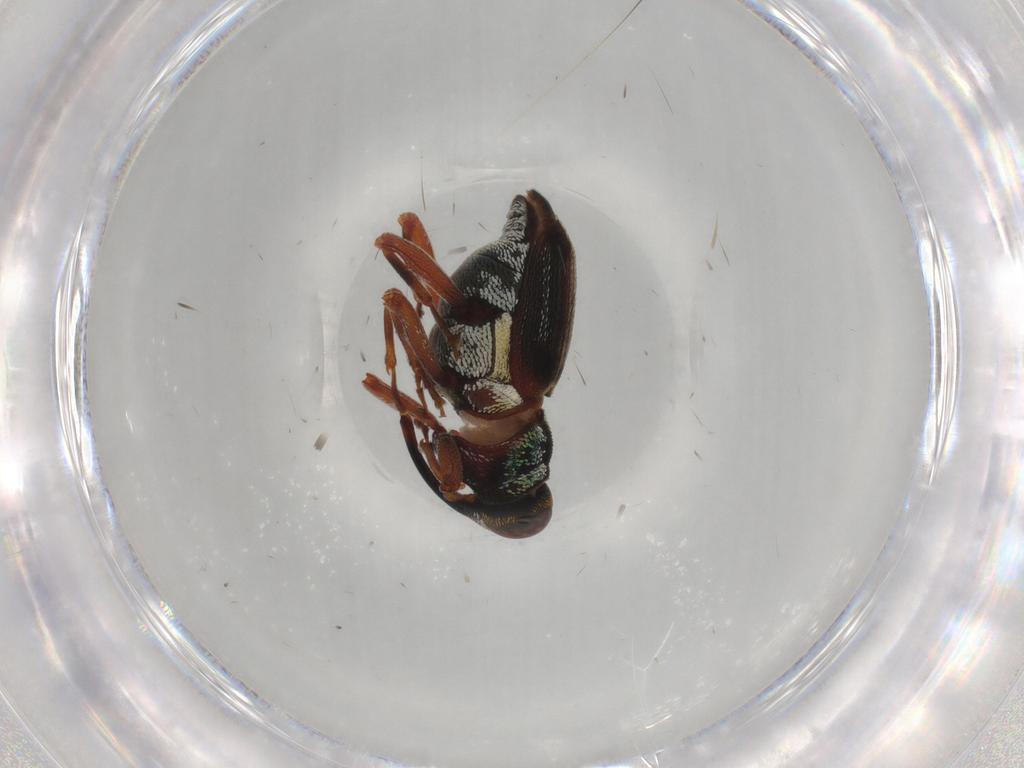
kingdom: Animalia
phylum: Arthropoda
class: Insecta
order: Coleoptera
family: Curculionidae
